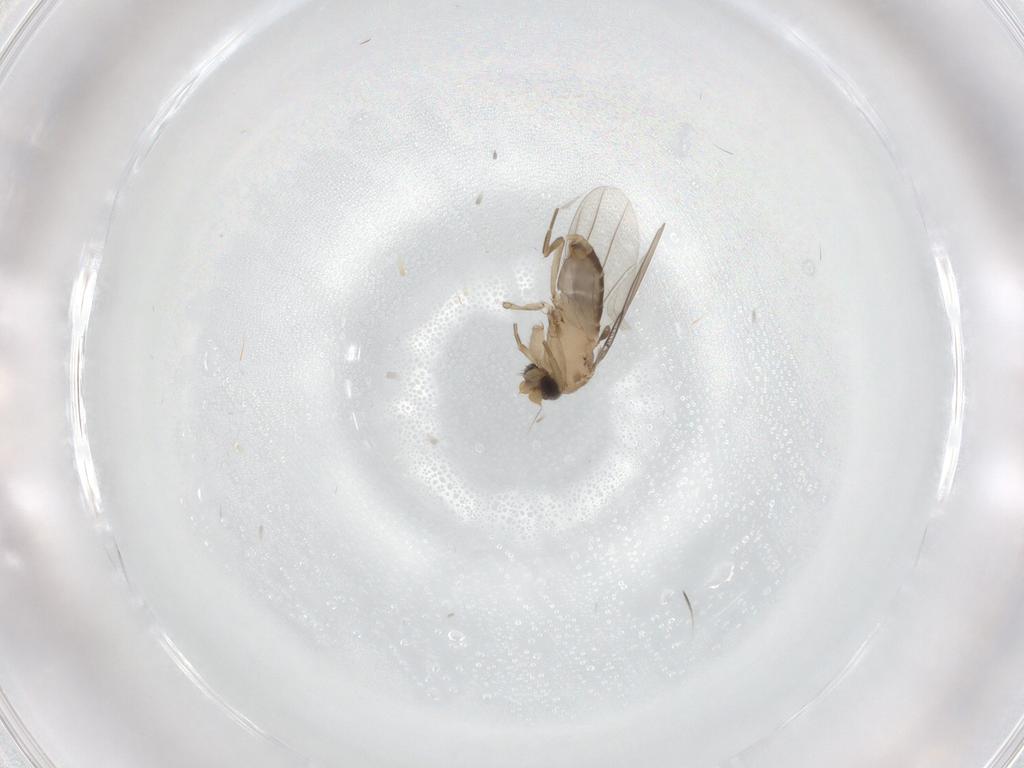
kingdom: Animalia
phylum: Arthropoda
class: Insecta
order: Diptera
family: Phoridae
